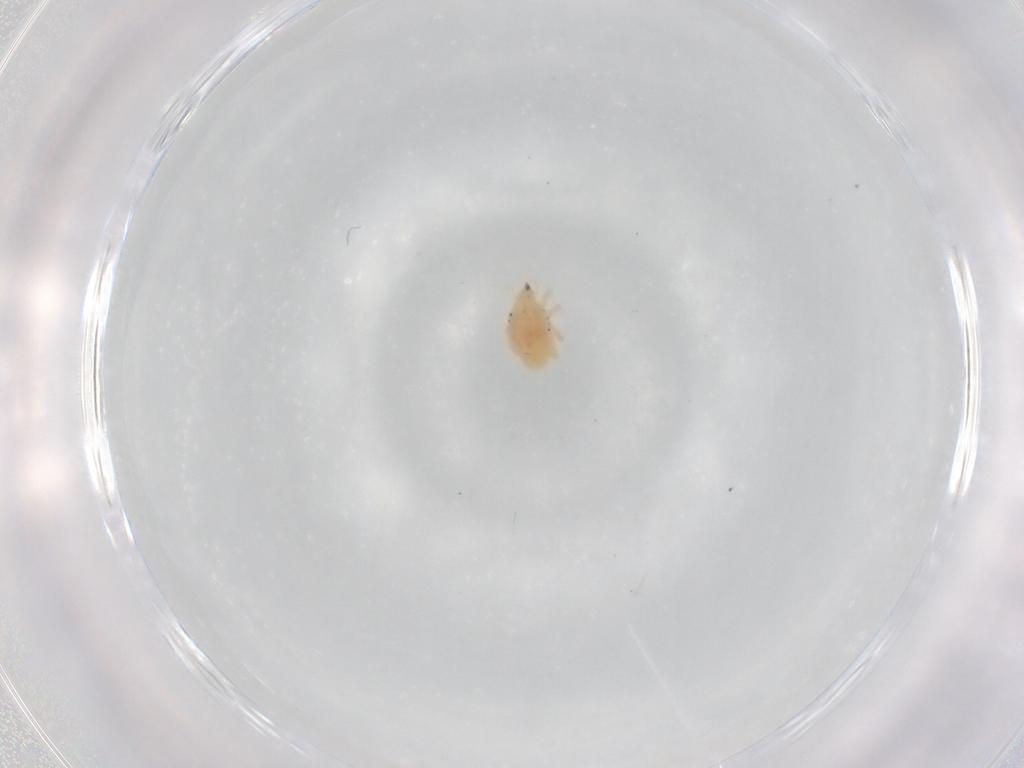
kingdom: Animalia
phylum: Arthropoda
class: Arachnida
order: Trombidiformes
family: Bdellidae
